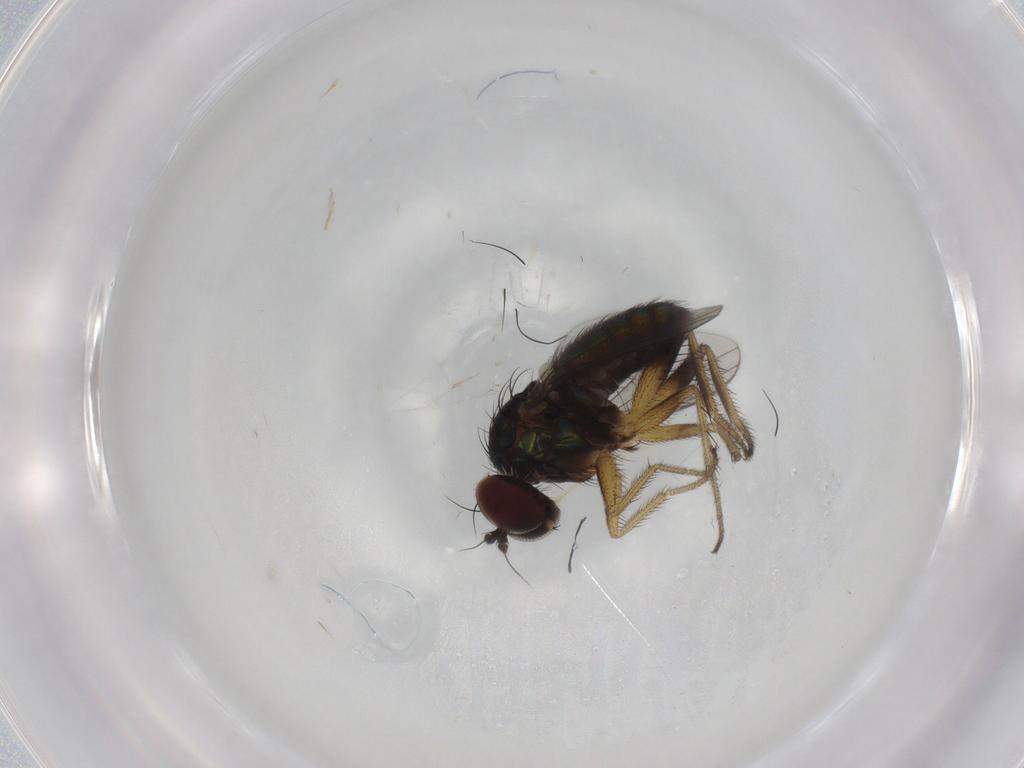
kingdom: Animalia
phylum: Arthropoda
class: Insecta
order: Diptera
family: Dolichopodidae
